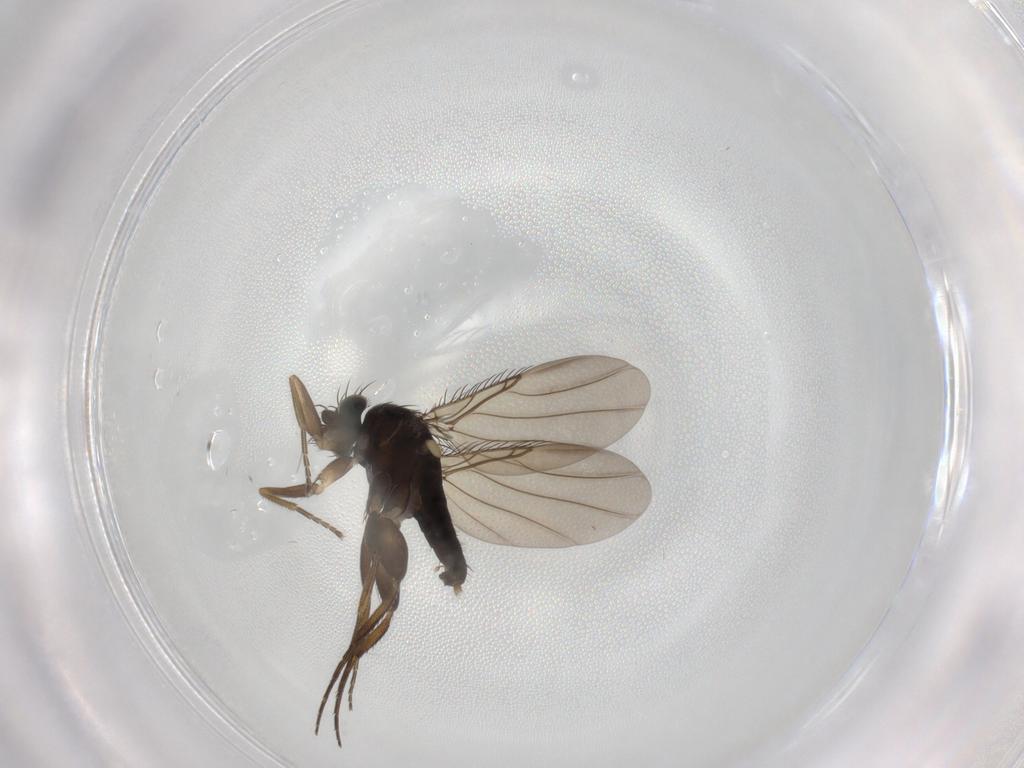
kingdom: Animalia
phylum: Arthropoda
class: Insecta
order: Diptera
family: Phoridae
